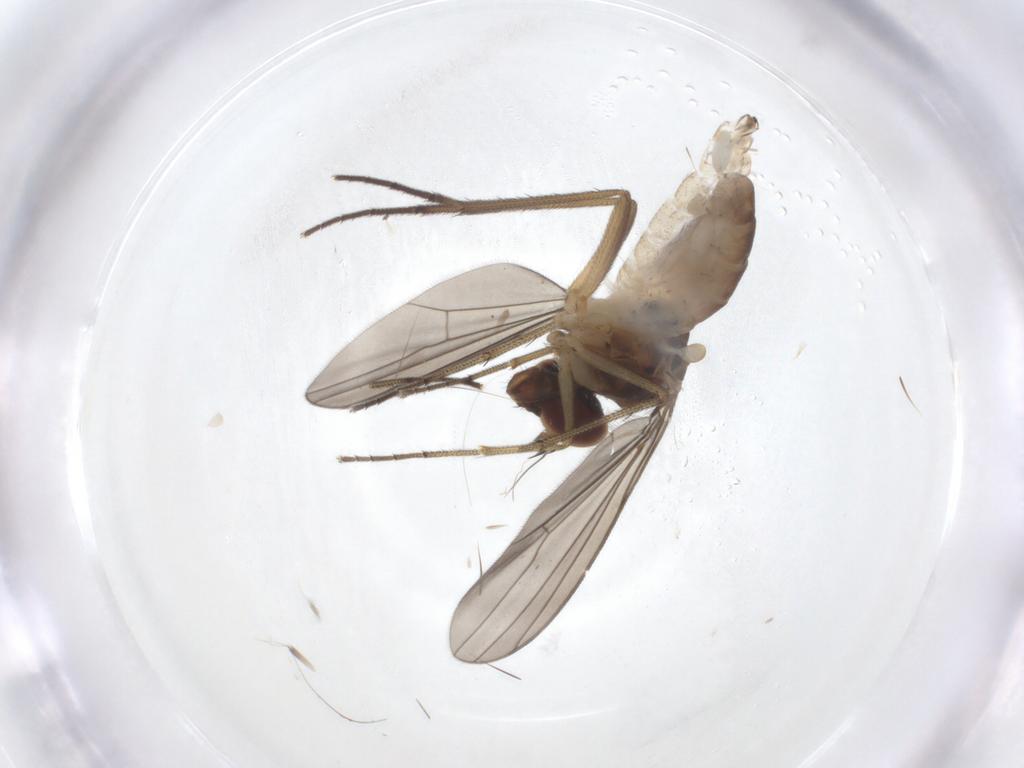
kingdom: Animalia
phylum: Arthropoda
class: Insecta
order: Diptera
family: Dolichopodidae
